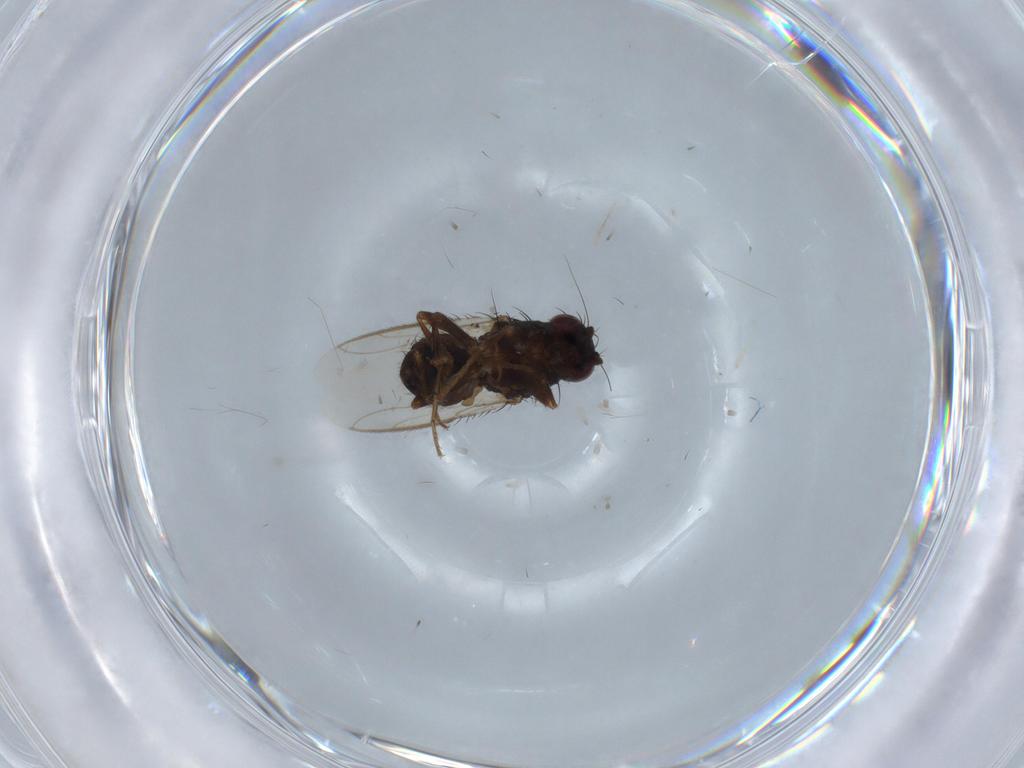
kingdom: Animalia
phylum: Arthropoda
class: Insecta
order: Diptera
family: Sphaeroceridae
